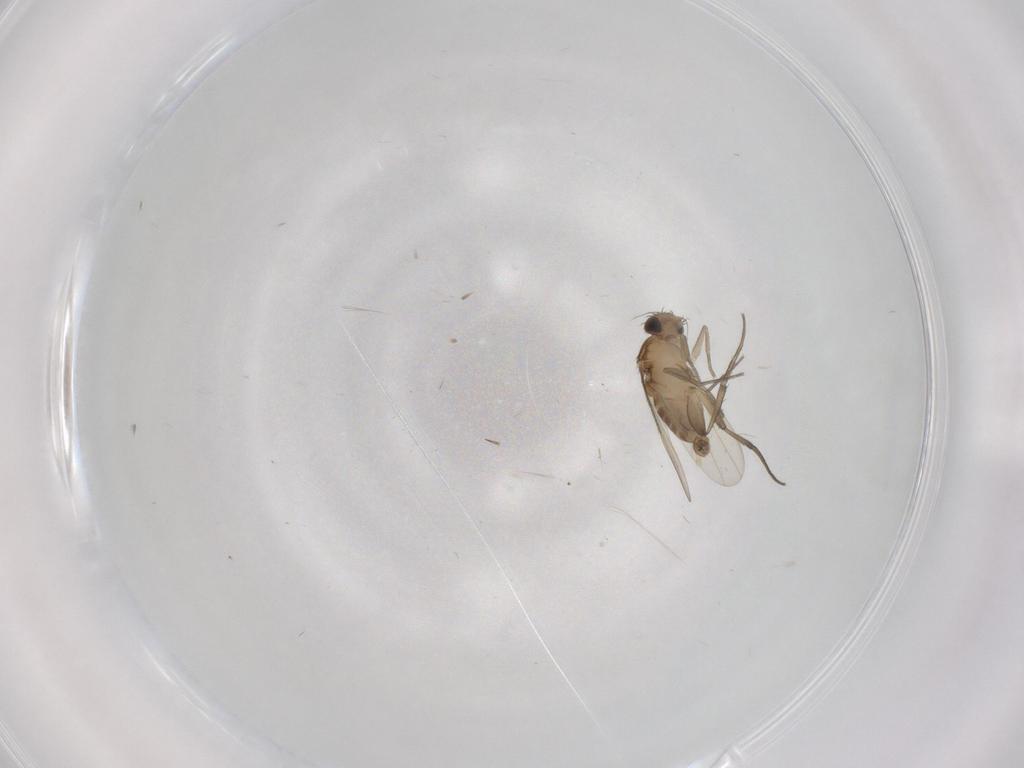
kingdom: Animalia
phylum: Arthropoda
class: Insecta
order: Diptera
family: Phoridae
